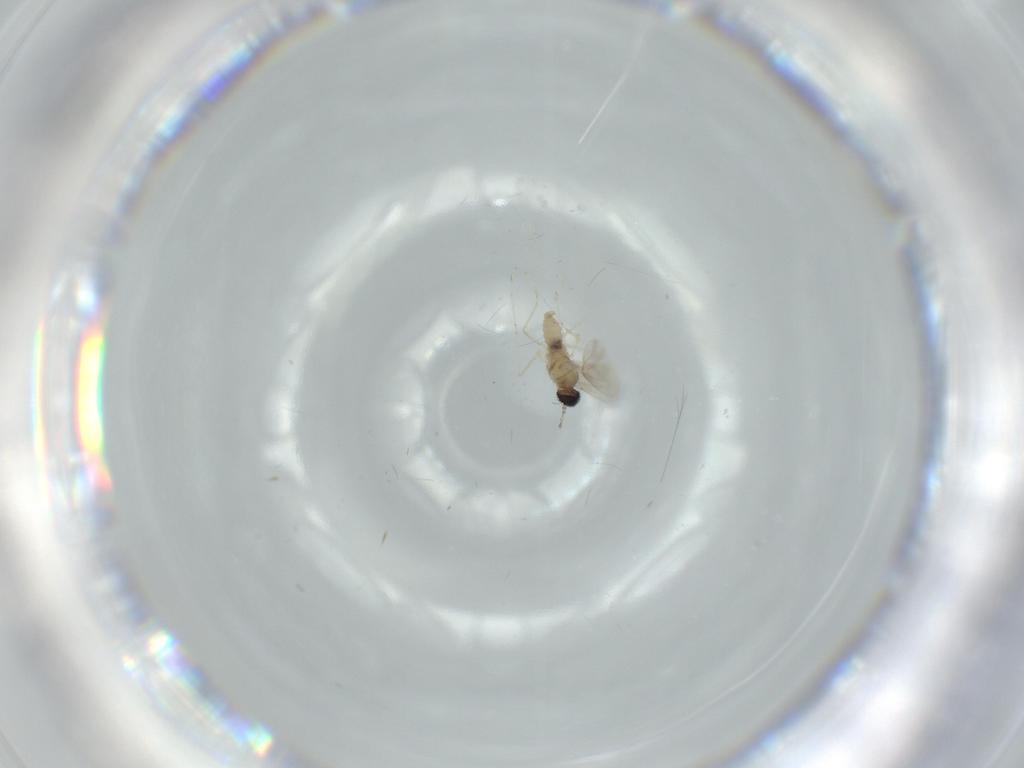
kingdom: Animalia
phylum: Arthropoda
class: Insecta
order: Diptera
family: Cecidomyiidae
